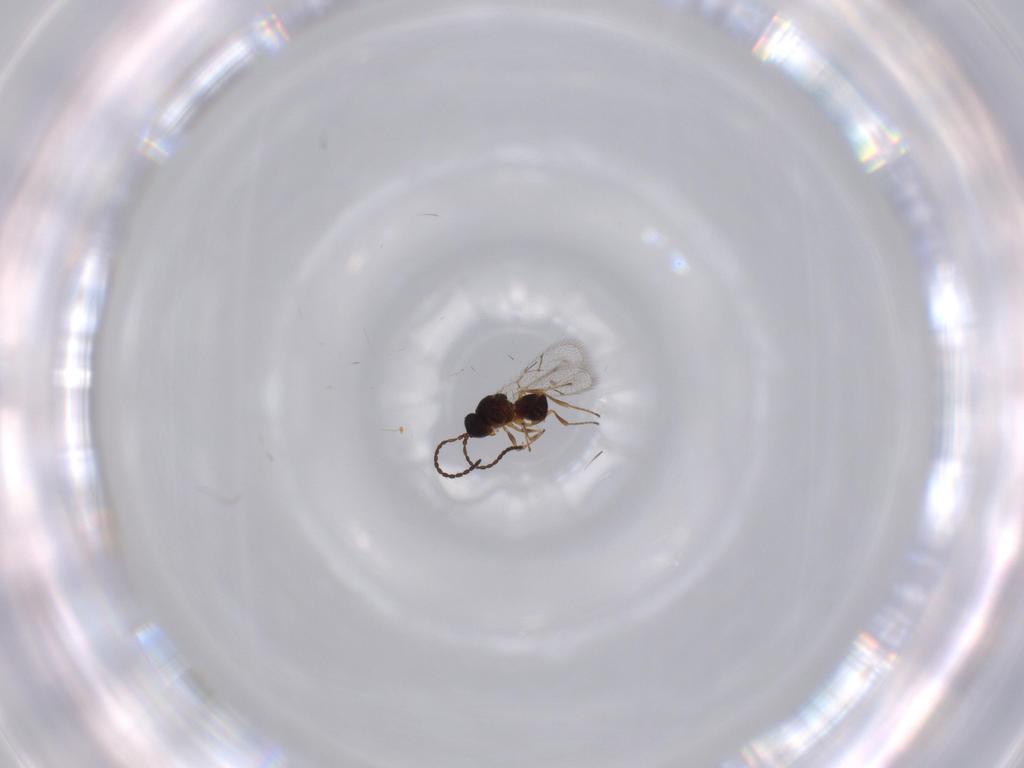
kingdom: Animalia
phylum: Arthropoda
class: Insecta
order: Hymenoptera
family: Figitidae
